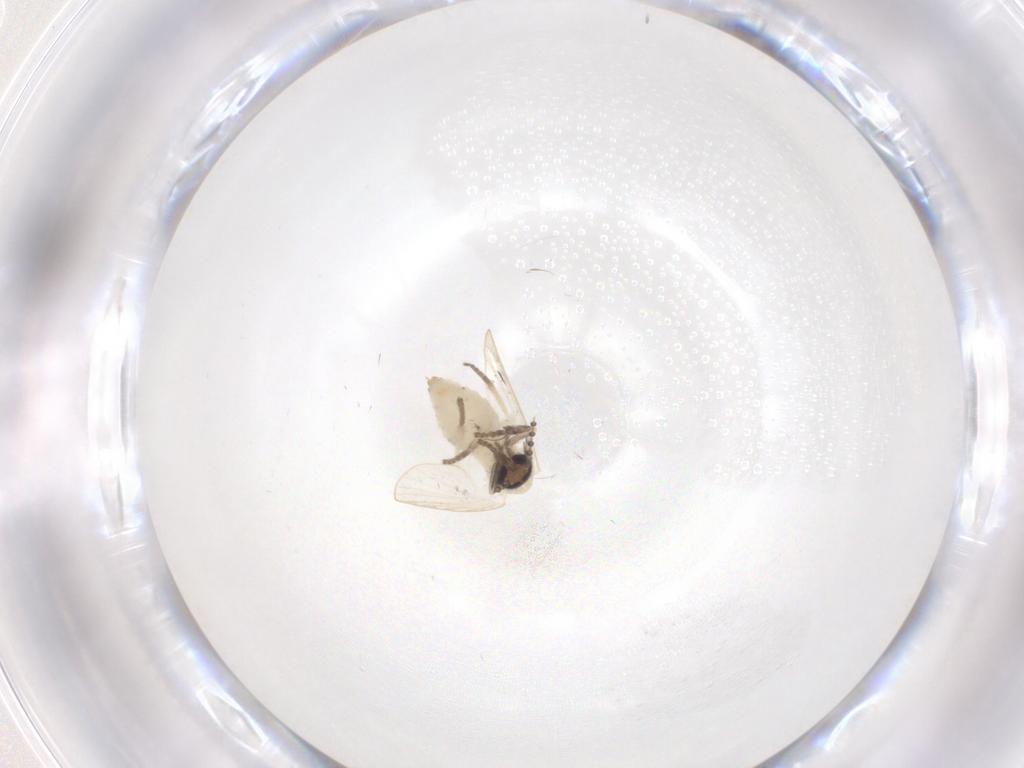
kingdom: Animalia
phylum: Arthropoda
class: Insecta
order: Diptera
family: Psychodidae
